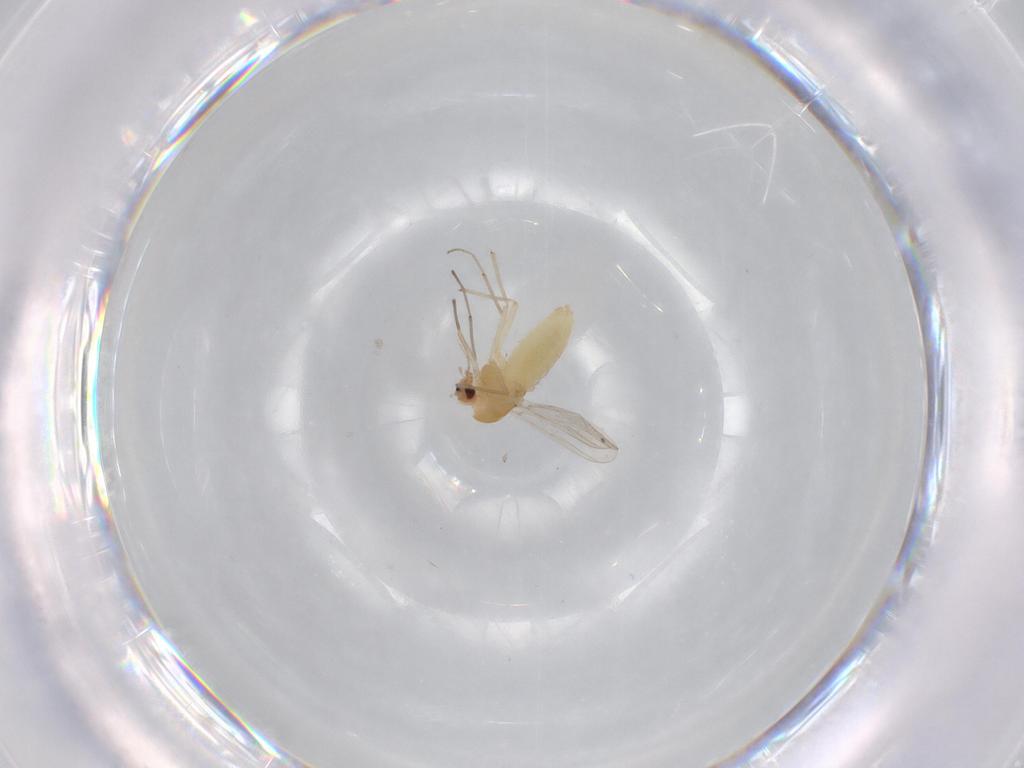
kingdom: Animalia
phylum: Arthropoda
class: Insecta
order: Diptera
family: Chironomidae
